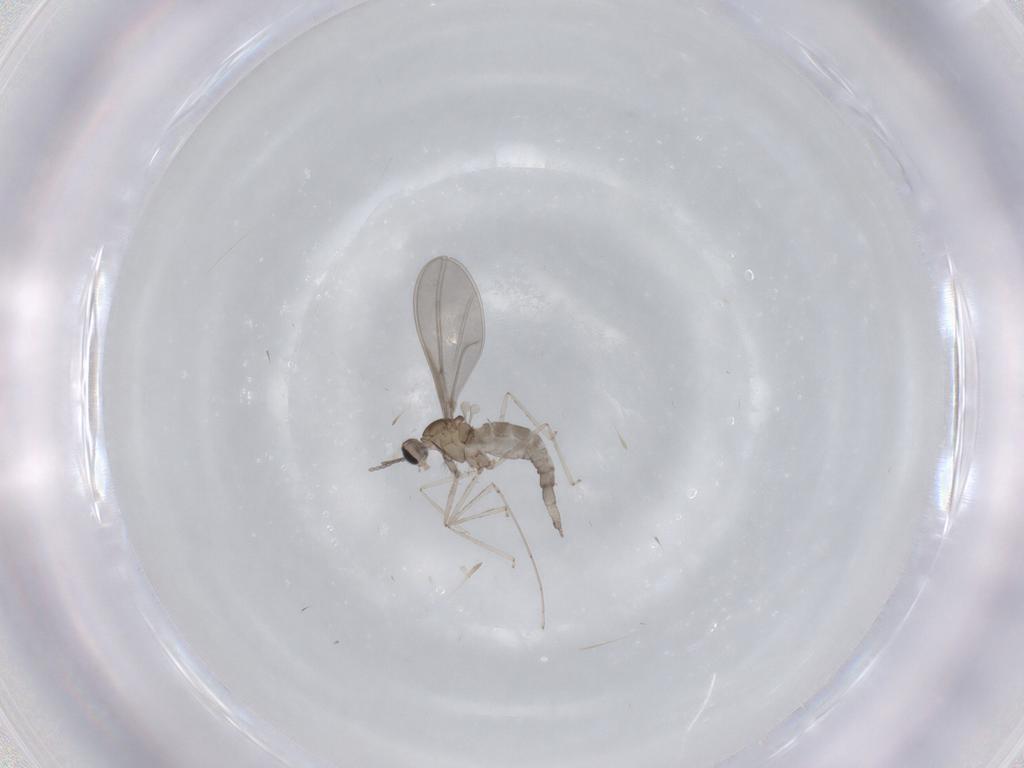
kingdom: Animalia
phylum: Arthropoda
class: Insecta
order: Diptera
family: Cecidomyiidae
